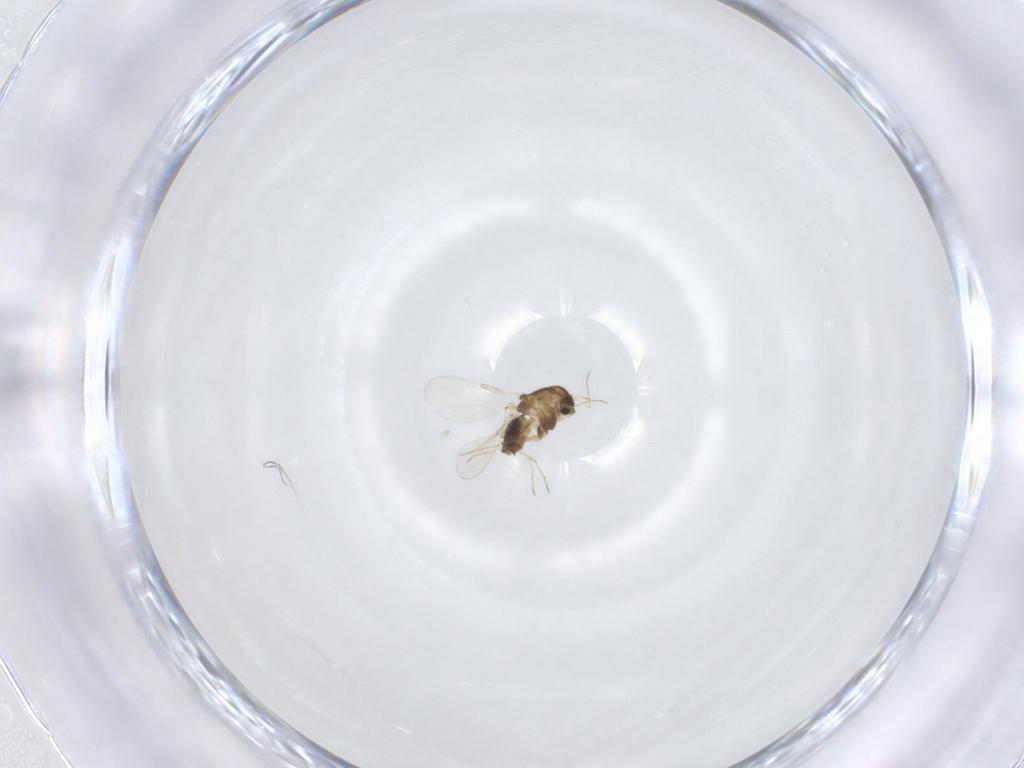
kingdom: Animalia
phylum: Arthropoda
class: Insecta
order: Diptera
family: Chironomidae
